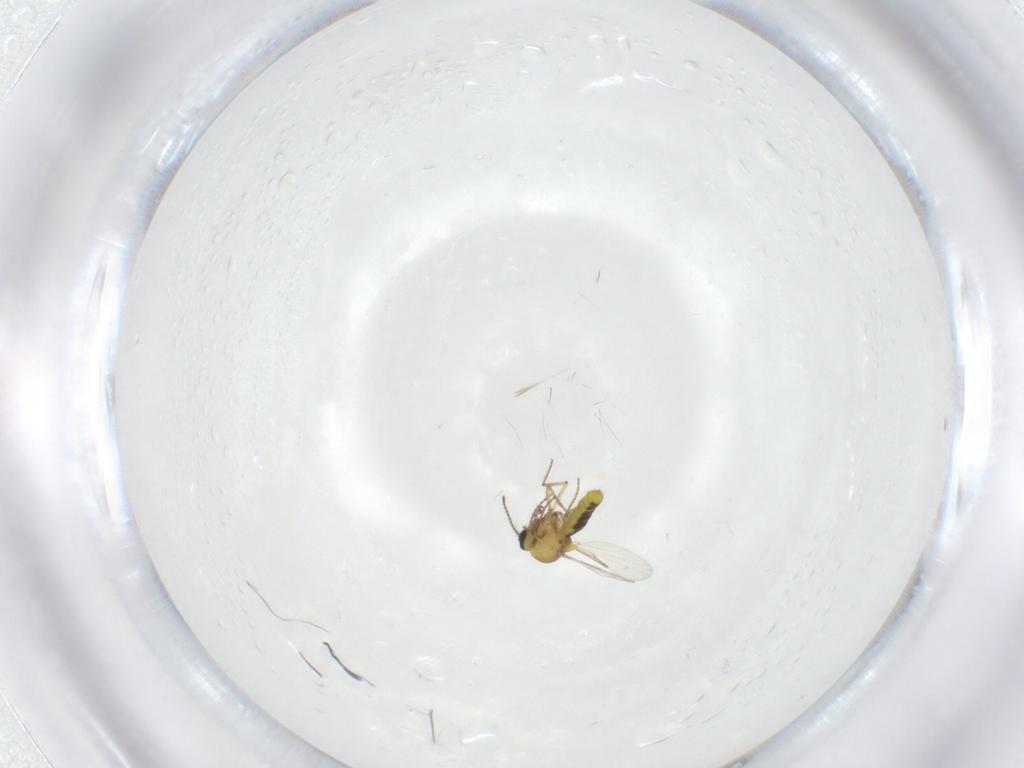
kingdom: Animalia
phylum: Arthropoda
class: Insecta
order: Diptera
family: Ceratopogonidae
